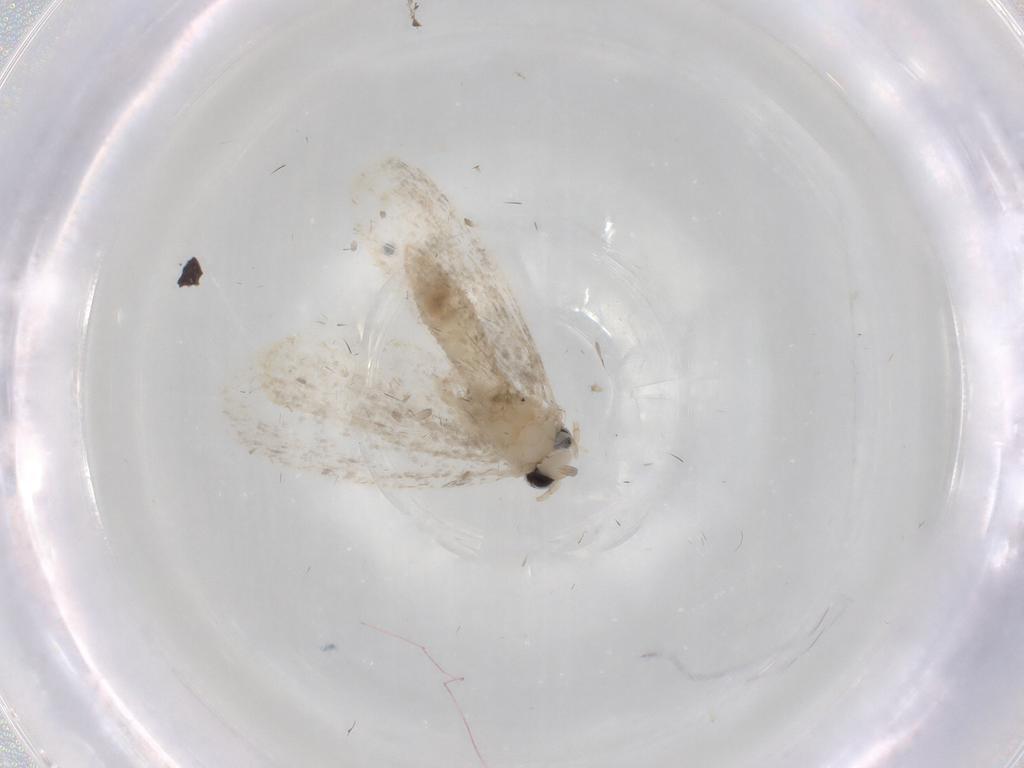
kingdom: Animalia
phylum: Arthropoda
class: Insecta
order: Lepidoptera
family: Psychidae
